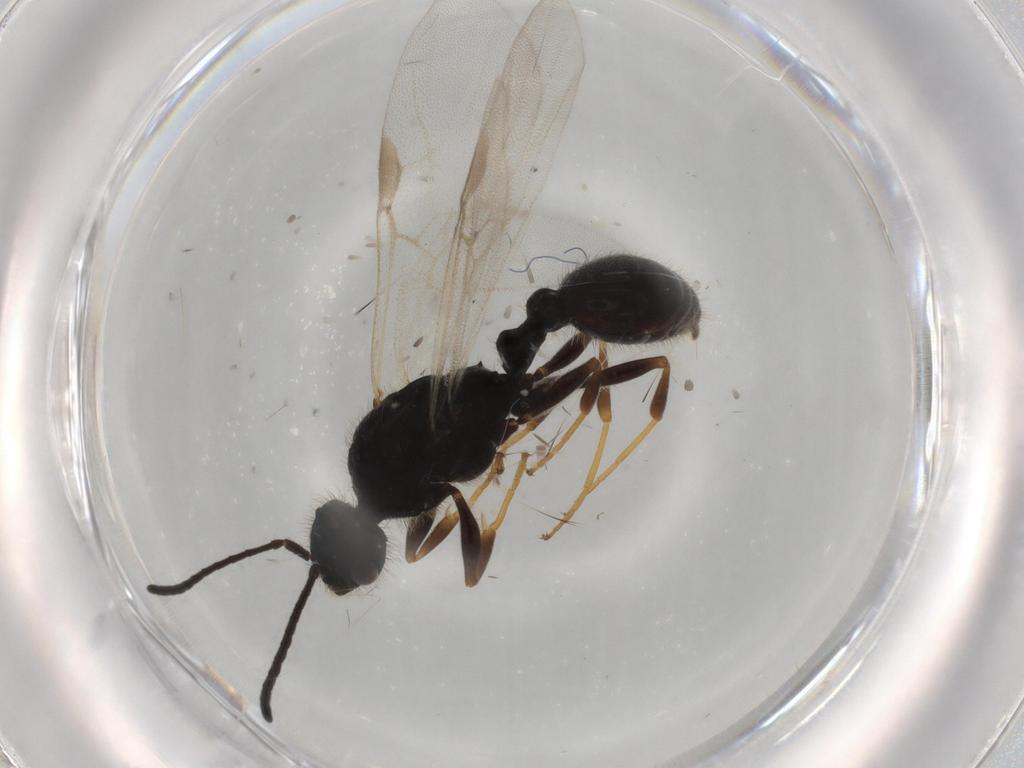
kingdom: Animalia
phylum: Arthropoda
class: Insecta
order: Hymenoptera
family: Formicidae
